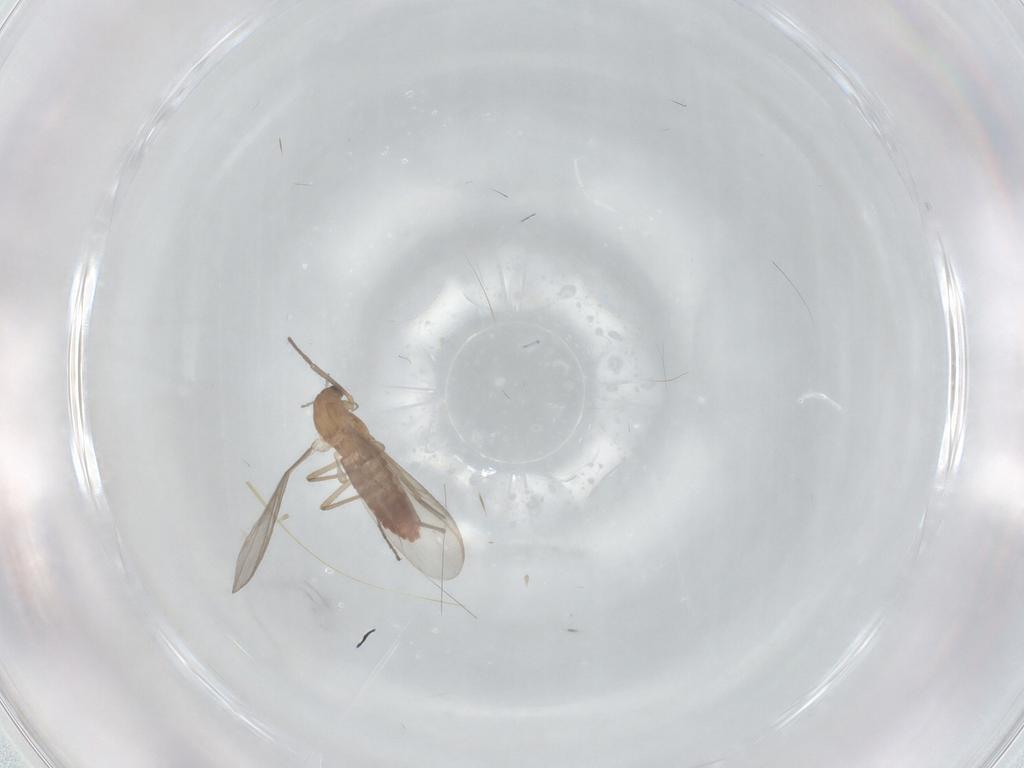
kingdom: Animalia
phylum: Arthropoda
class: Insecta
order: Diptera
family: Chironomidae
